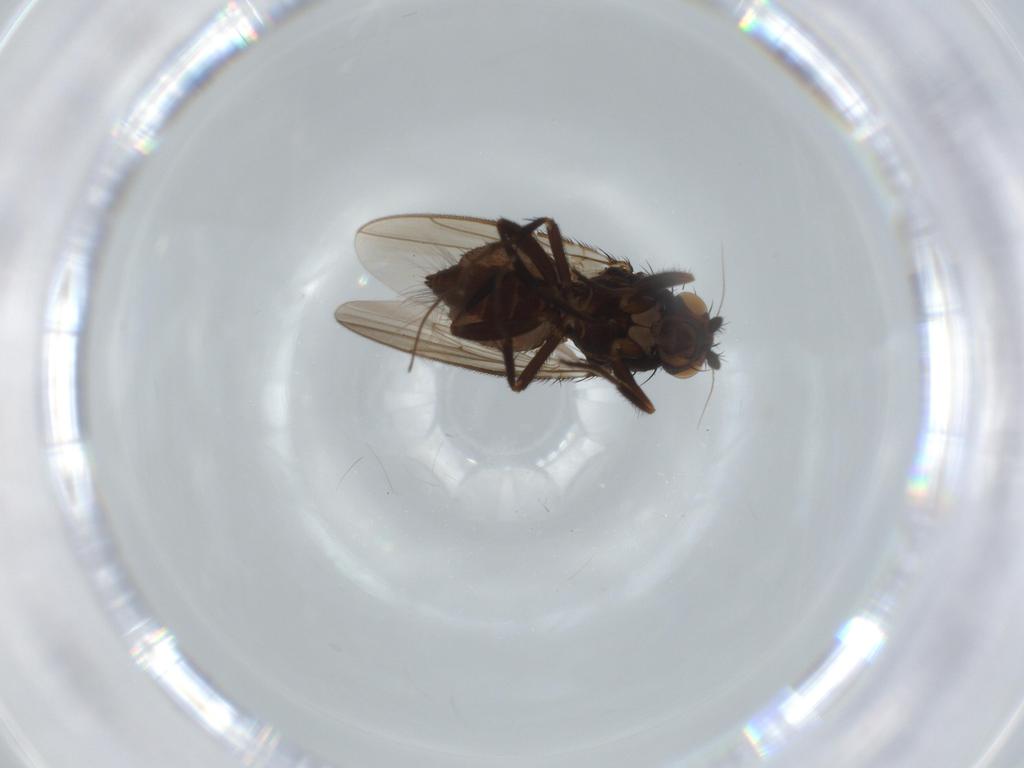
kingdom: Animalia
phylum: Arthropoda
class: Insecta
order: Diptera
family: Sphaeroceridae
